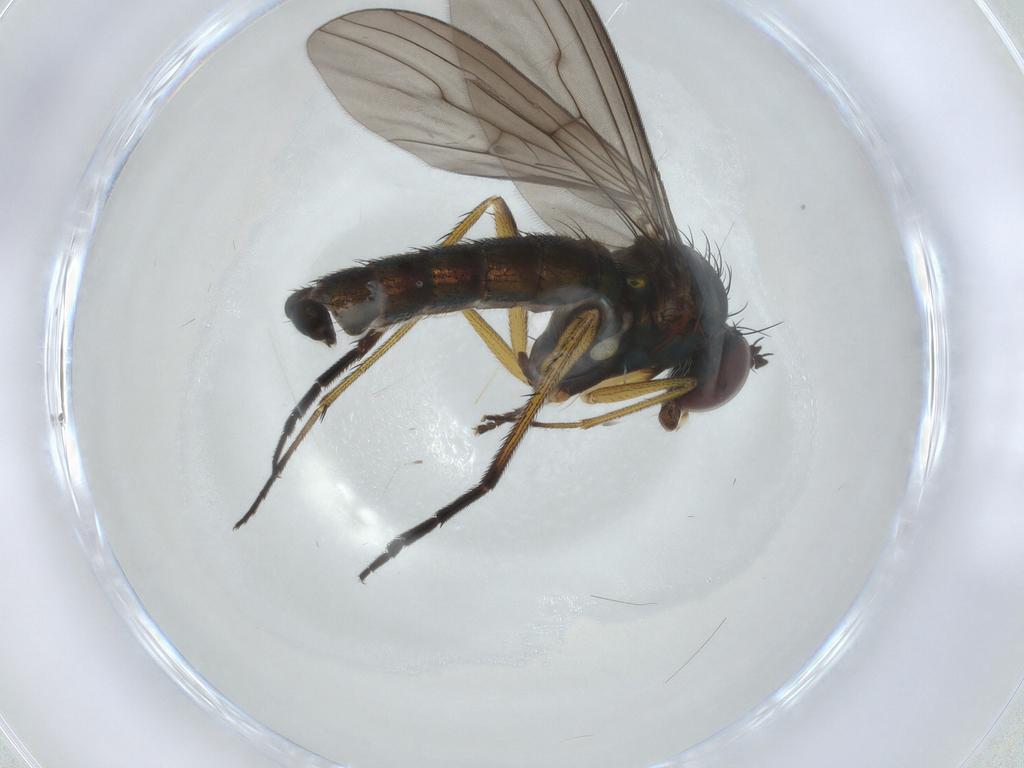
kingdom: Animalia
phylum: Arthropoda
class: Insecta
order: Diptera
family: Dolichopodidae
